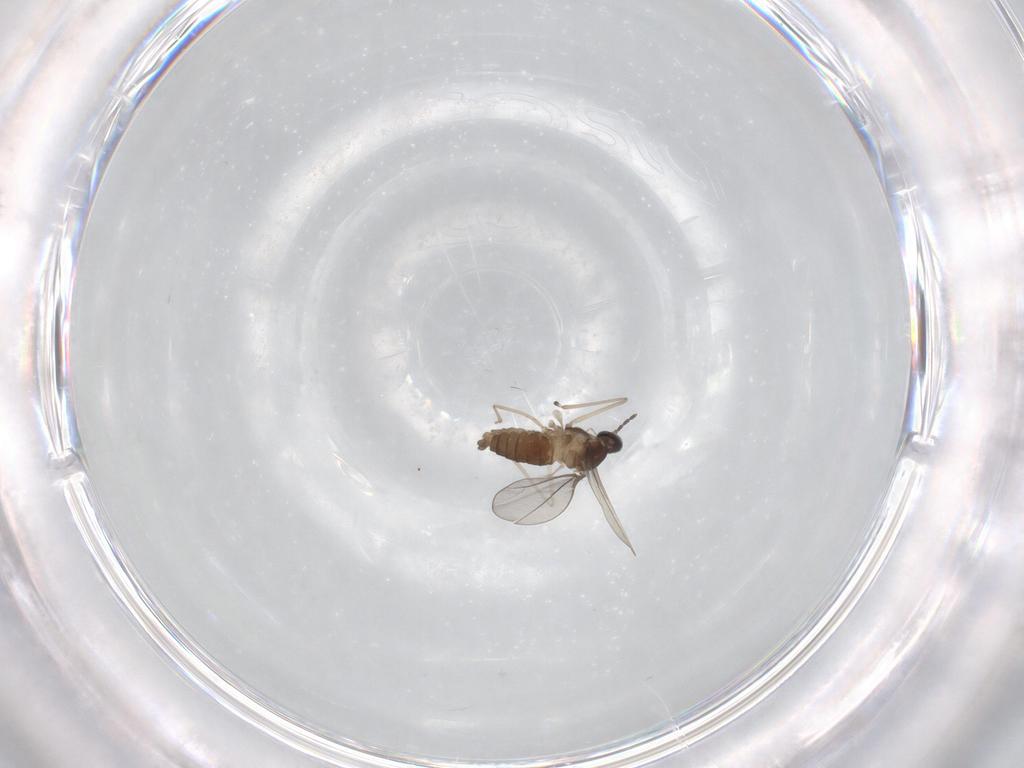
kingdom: Animalia
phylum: Arthropoda
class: Insecta
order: Diptera
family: Cecidomyiidae
